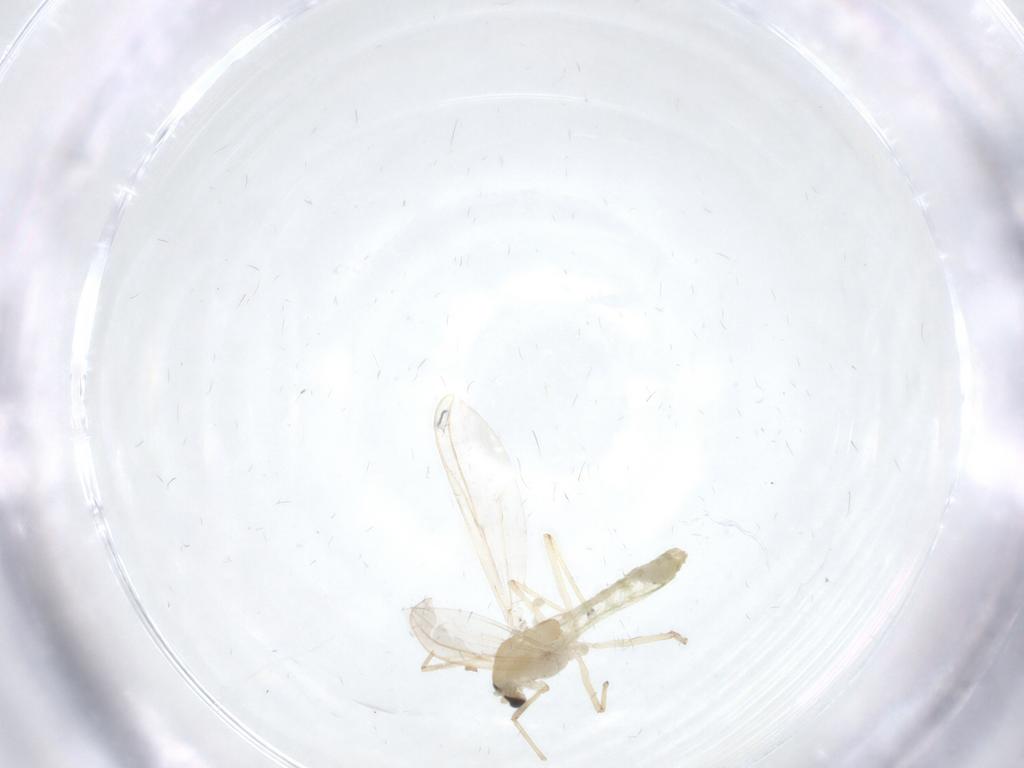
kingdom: Animalia
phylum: Arthropoda
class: Insecta
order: Diptera
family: Chironomidae
